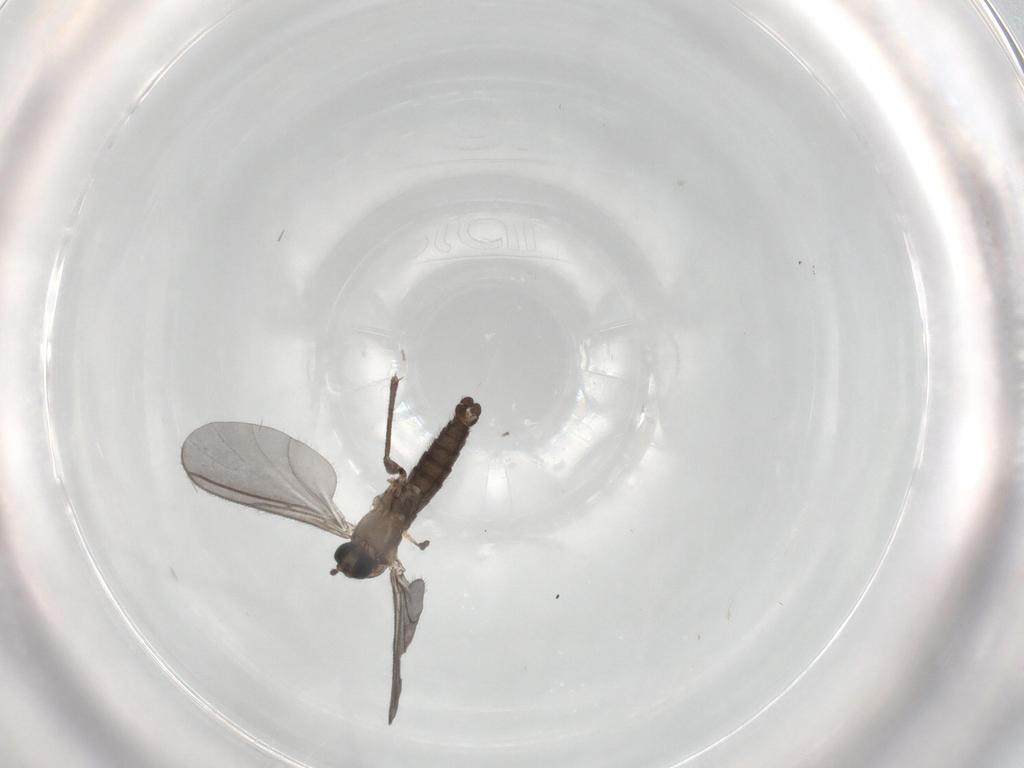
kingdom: Animalia
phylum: Arthropoda
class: Insecta
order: Diptera
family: Sciaridae
